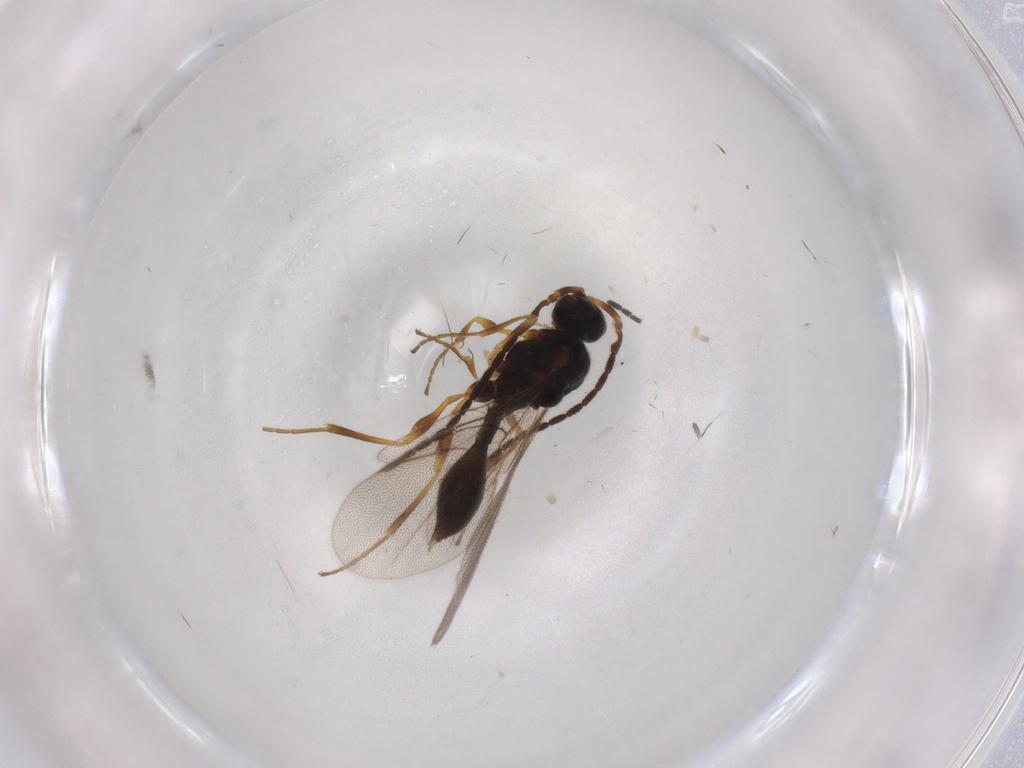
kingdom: Animalia
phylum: Arthropoda
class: Insecta
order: Hymenoptera
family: Diapriidae
